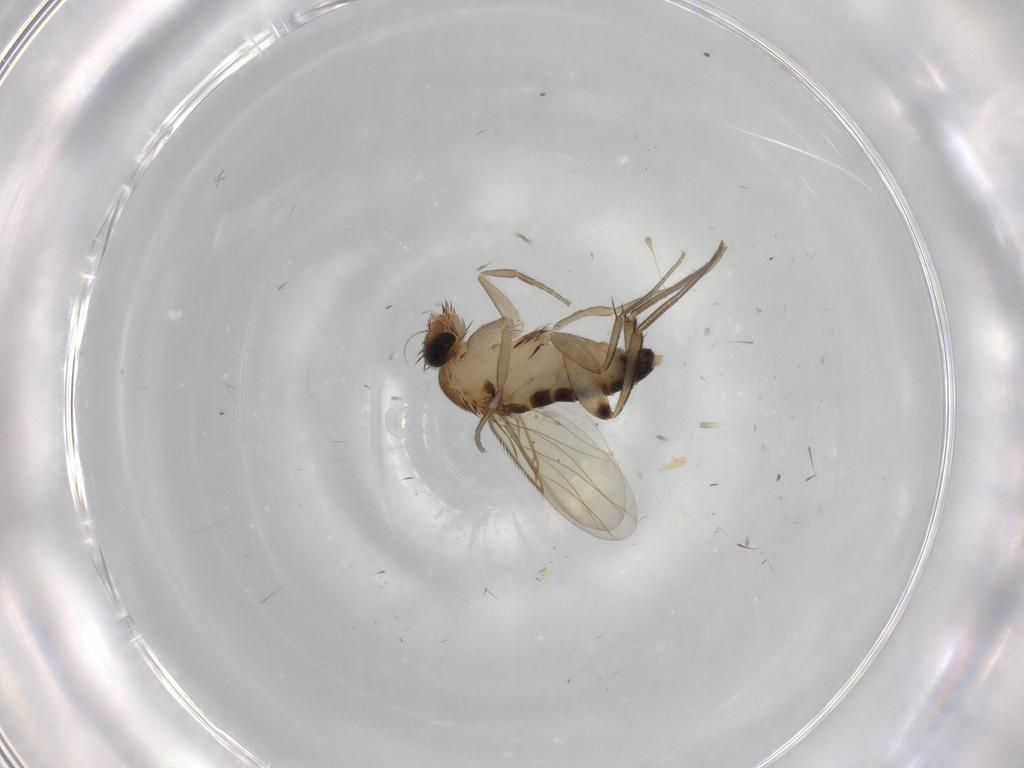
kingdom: Animalia
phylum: Arthropoda
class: Insecta
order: Diptera
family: Phoridae
